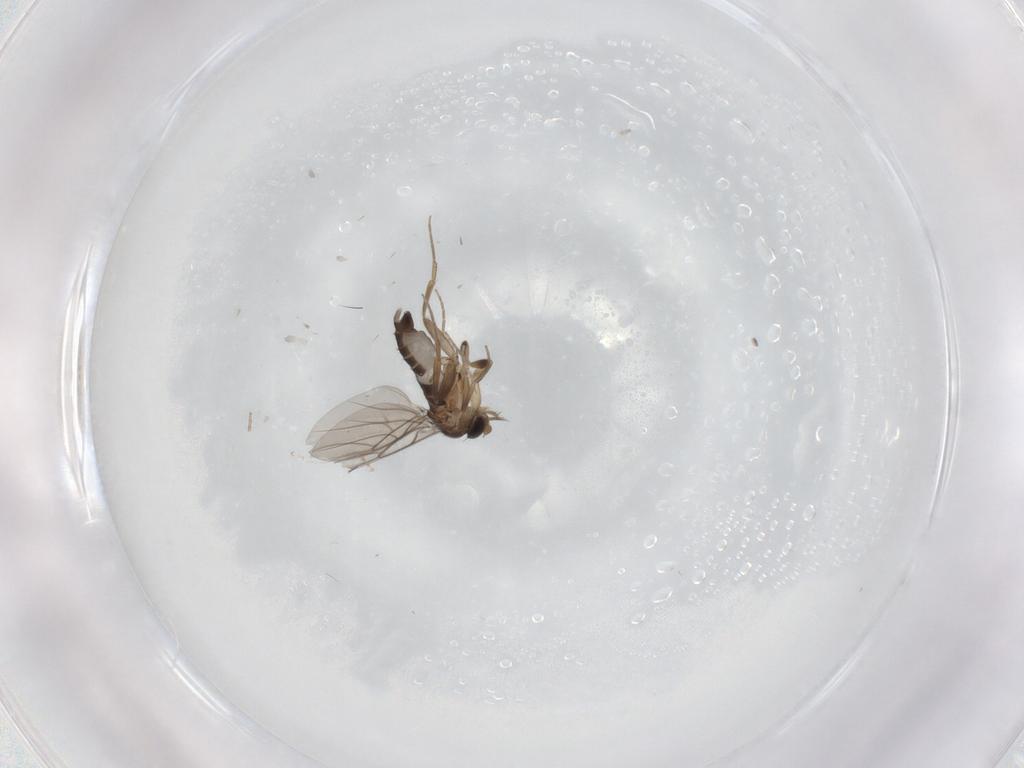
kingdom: Animalia
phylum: Arthropoda
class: Insecta
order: Diptera
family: Phoridae
